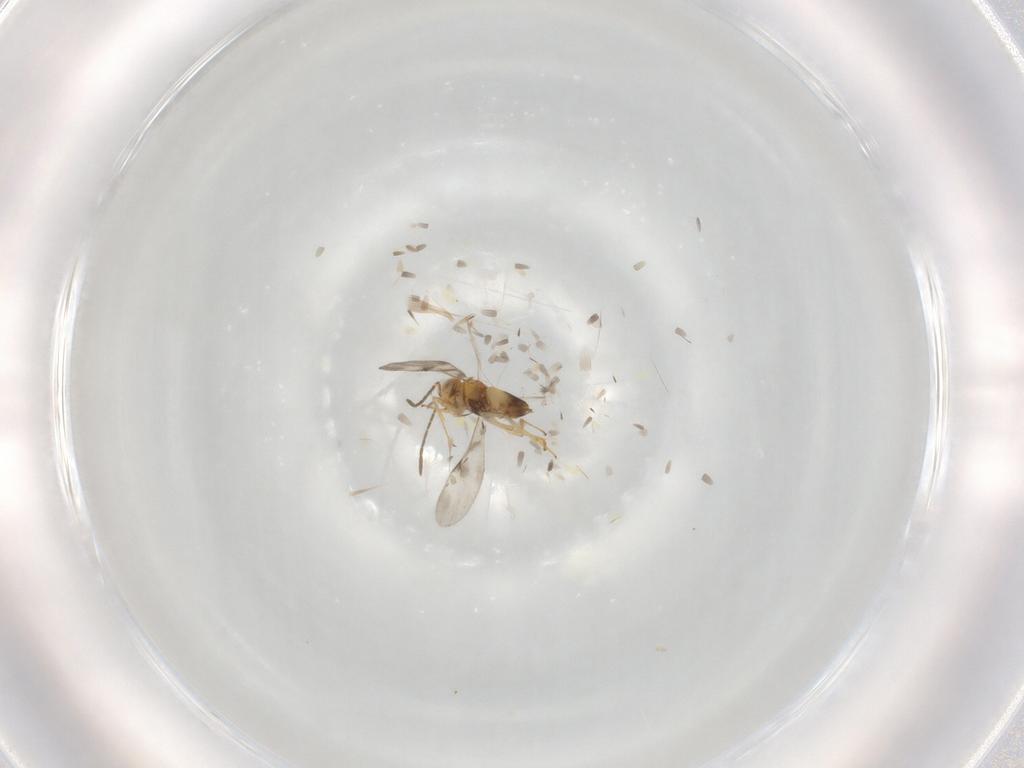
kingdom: Animalia
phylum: Arthropoda
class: Insecta
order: Hymenoptera
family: Encyrtidae
